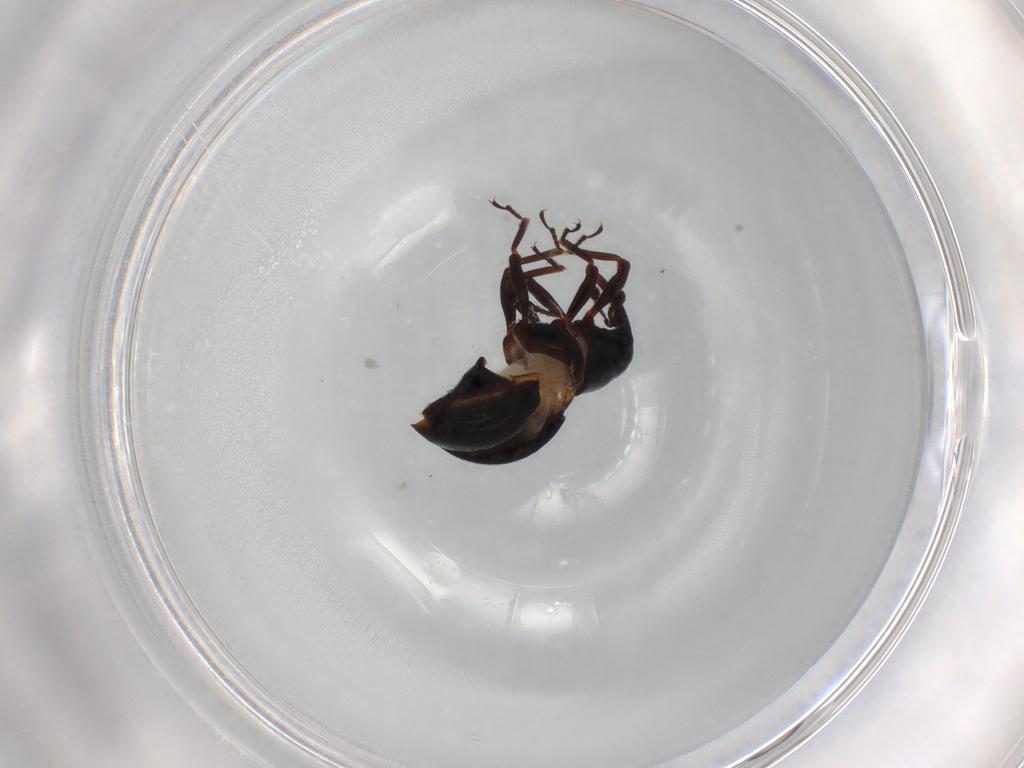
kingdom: Animalia
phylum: Arthropoda
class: Insecta
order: Coleoptera
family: Curculionidae
